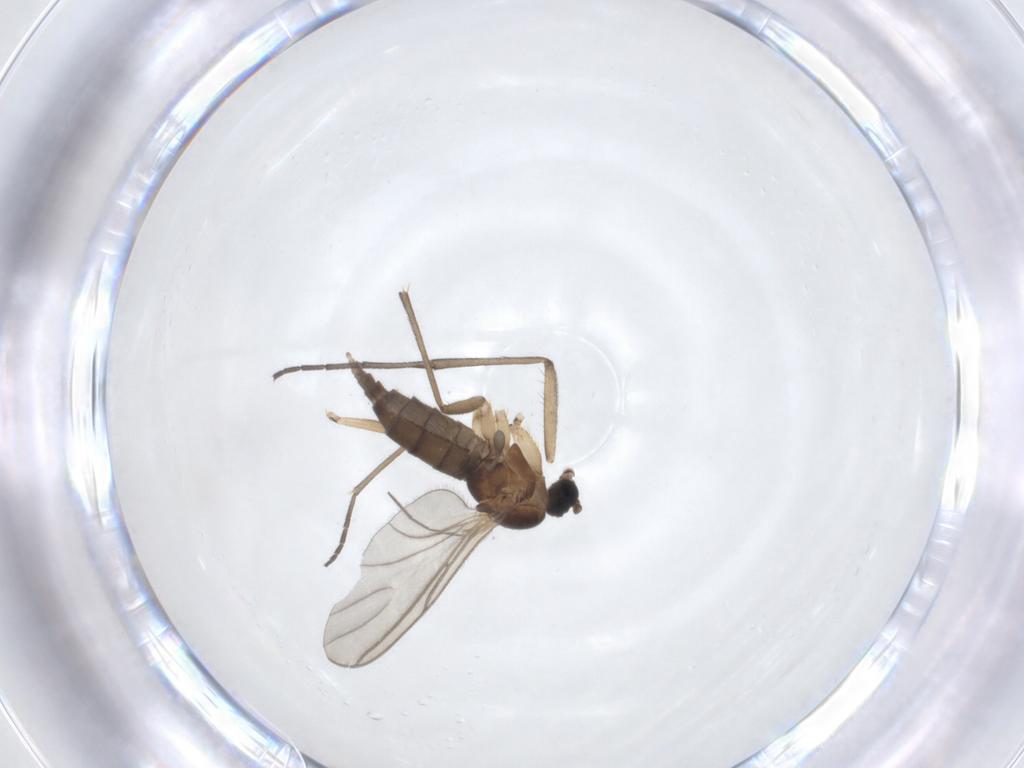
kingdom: Animalia
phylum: Arthropoda
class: Insecta
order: Diptera
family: Sciaridae
